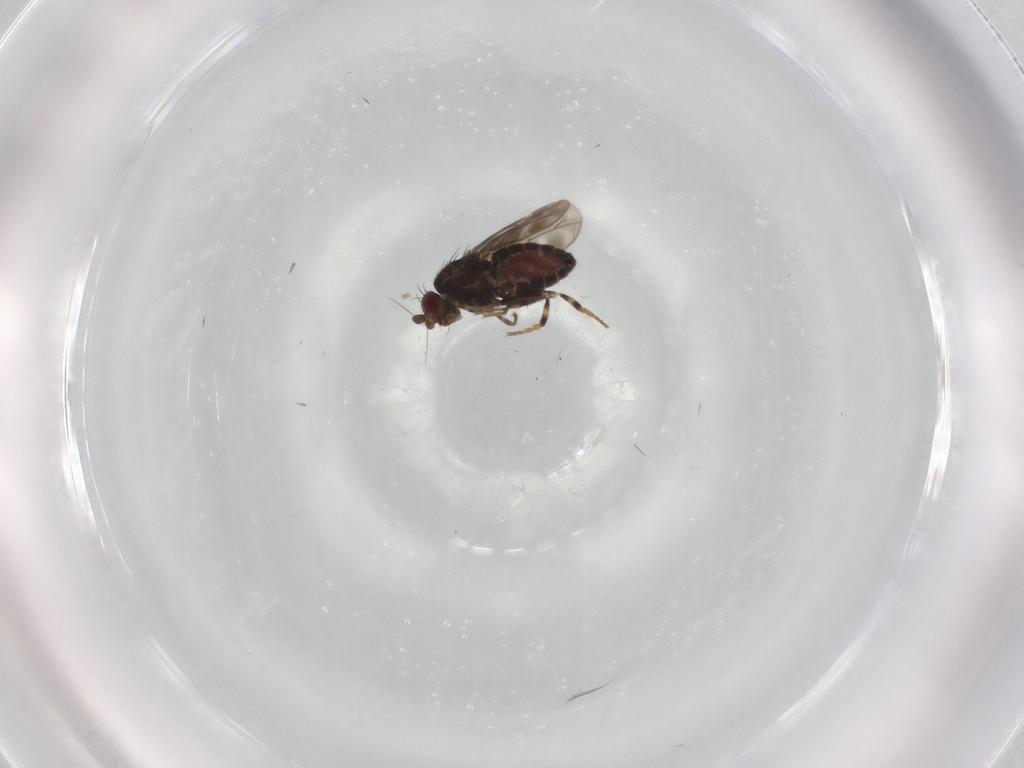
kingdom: Animalia
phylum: Arthropoda
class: Insecta
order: Diptera
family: Sphaeroceridae
